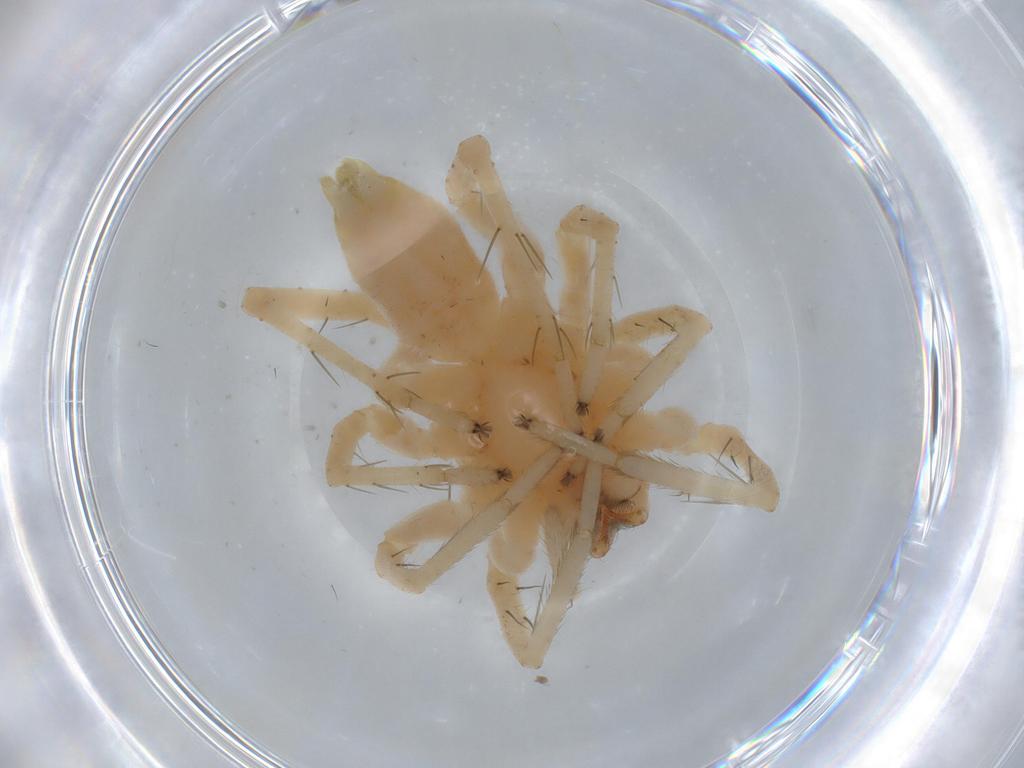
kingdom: Animalia
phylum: Arthropoda
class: Arachnida
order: Araneae
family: Anyphaenidae
